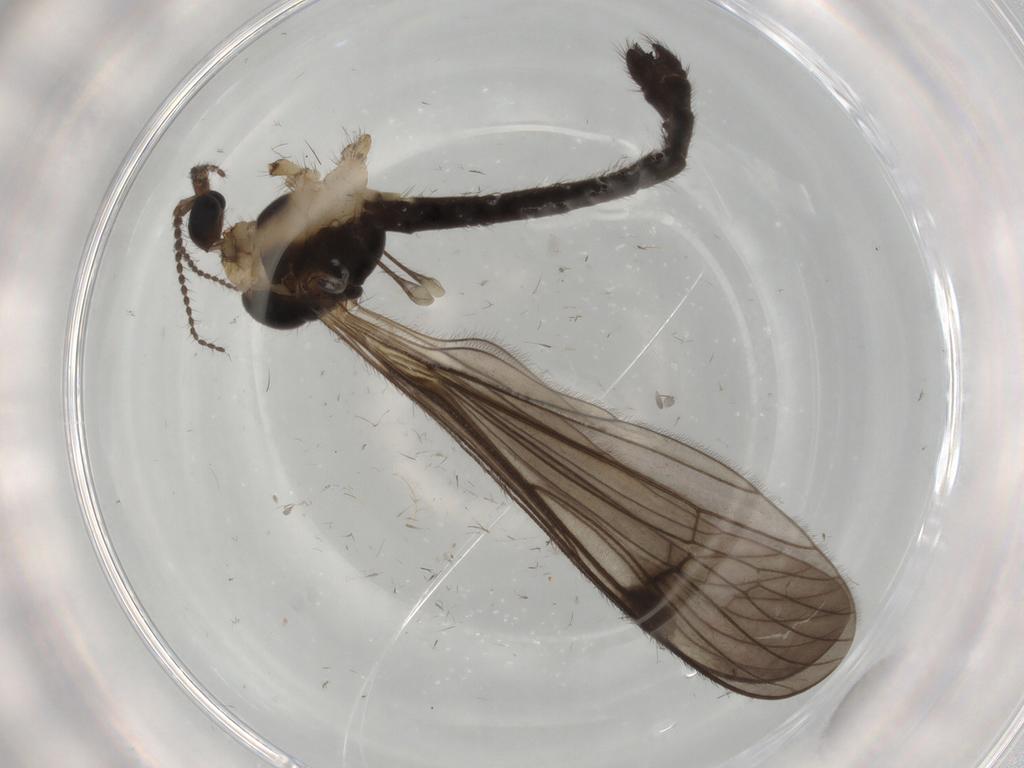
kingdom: Animalia
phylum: Arthropoda
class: Insecta
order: Diptera
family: Limoniidae
